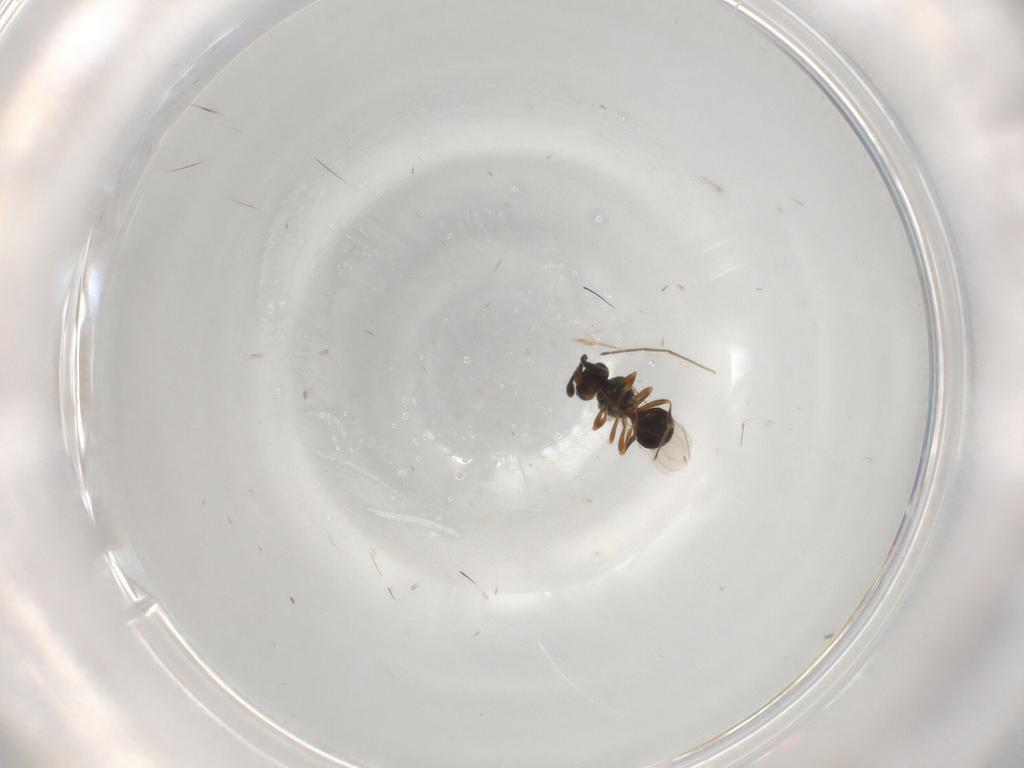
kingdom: Animalia
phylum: Arthropoda
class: Insecta
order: Hymenoptera
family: Scelionidae
